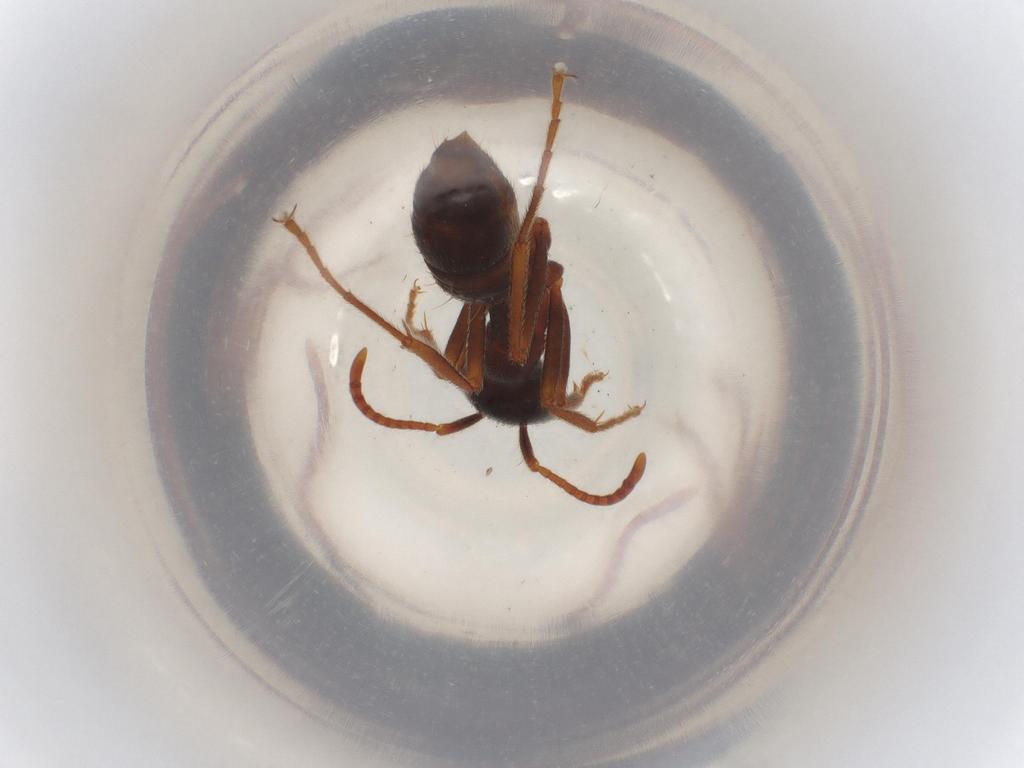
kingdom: Animalia
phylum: Arthropoda
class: Insecta
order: Hymenoptera
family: Formicidae
